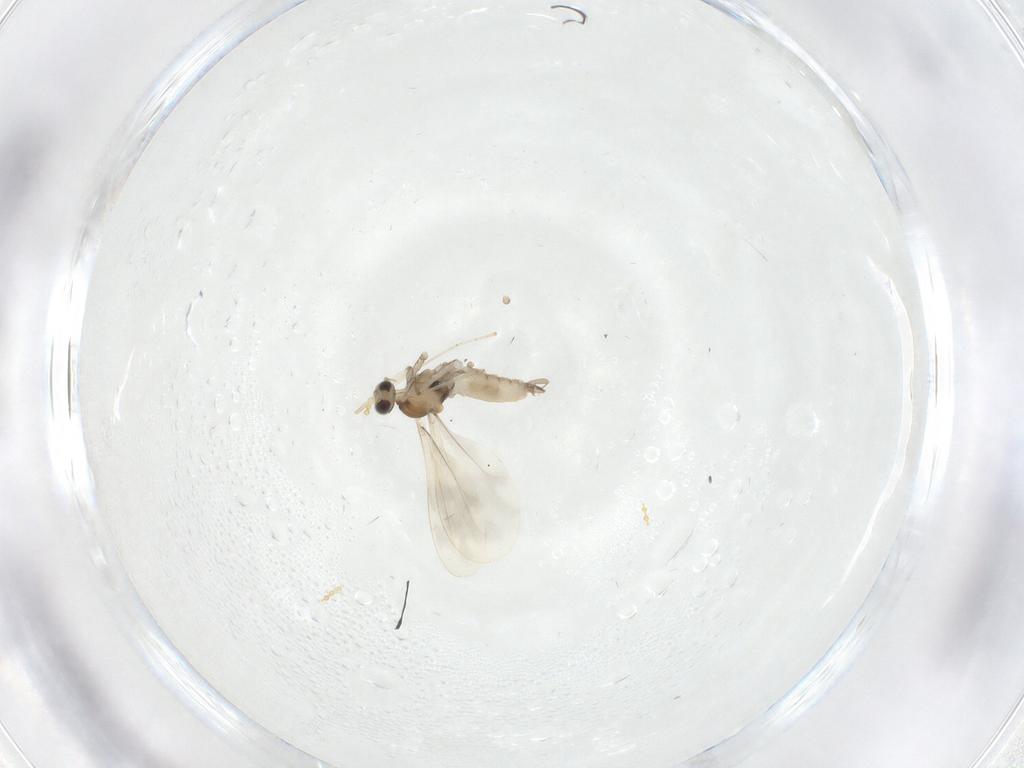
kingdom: Animalia
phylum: Arthropoda
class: Insecta
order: Diptera
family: Cecidomyiidae
